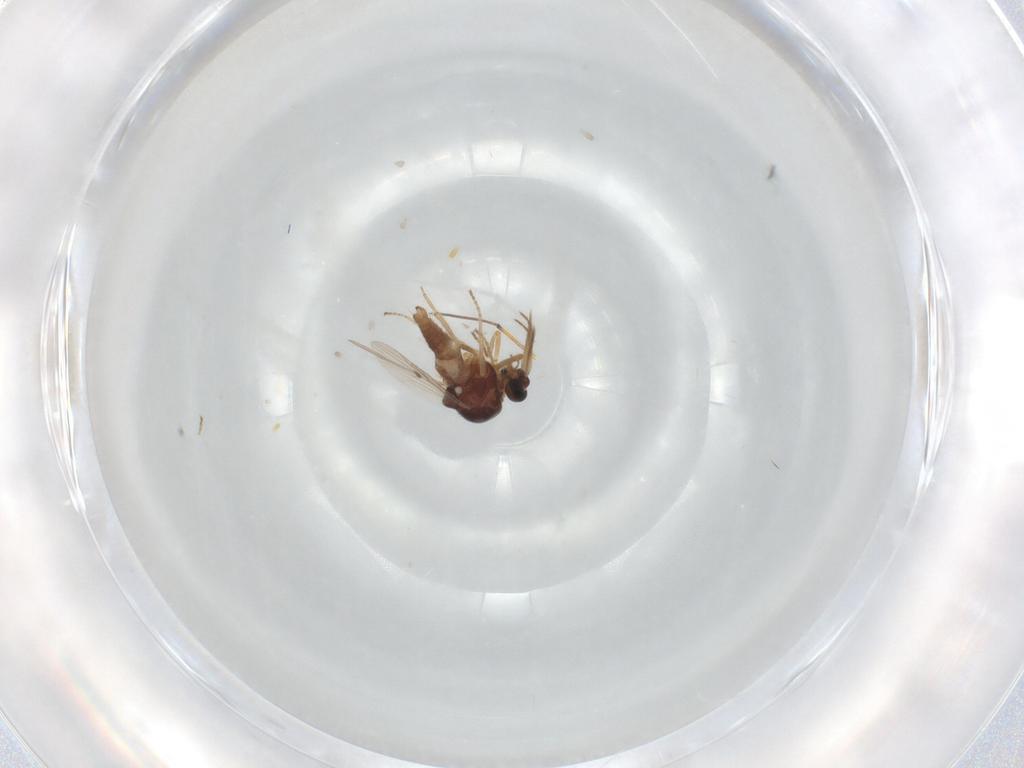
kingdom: Animalia
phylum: Arthropoda
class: Insecta
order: Diptera
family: Ceratopogonidae
